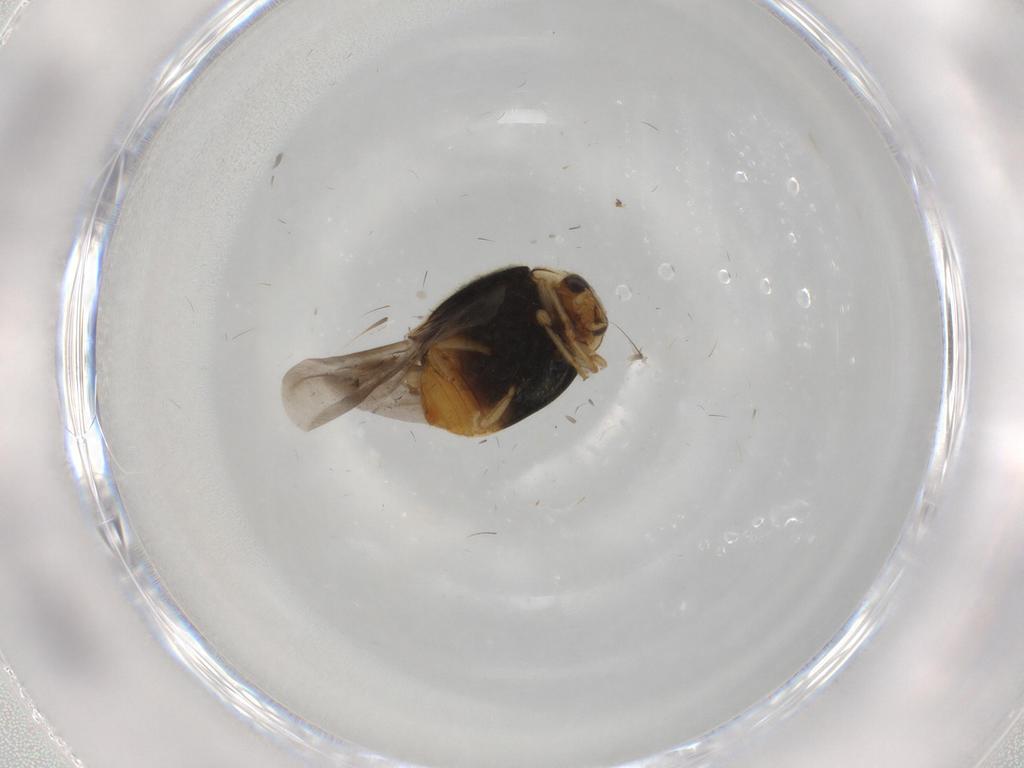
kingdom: Animalia
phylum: Arthropoda
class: Insecta
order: Coleoptera
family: Coccinellidae
